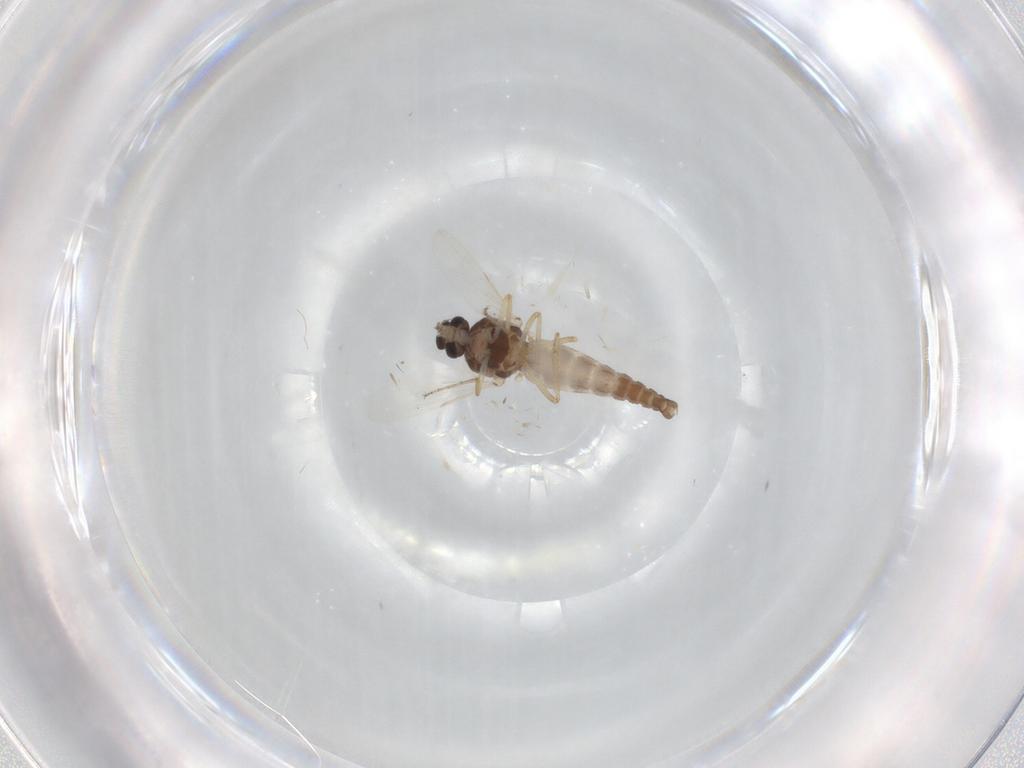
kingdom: Animalia
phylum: Arthropoda
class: Insecta
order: Diptera
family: Ceratopogonidae
